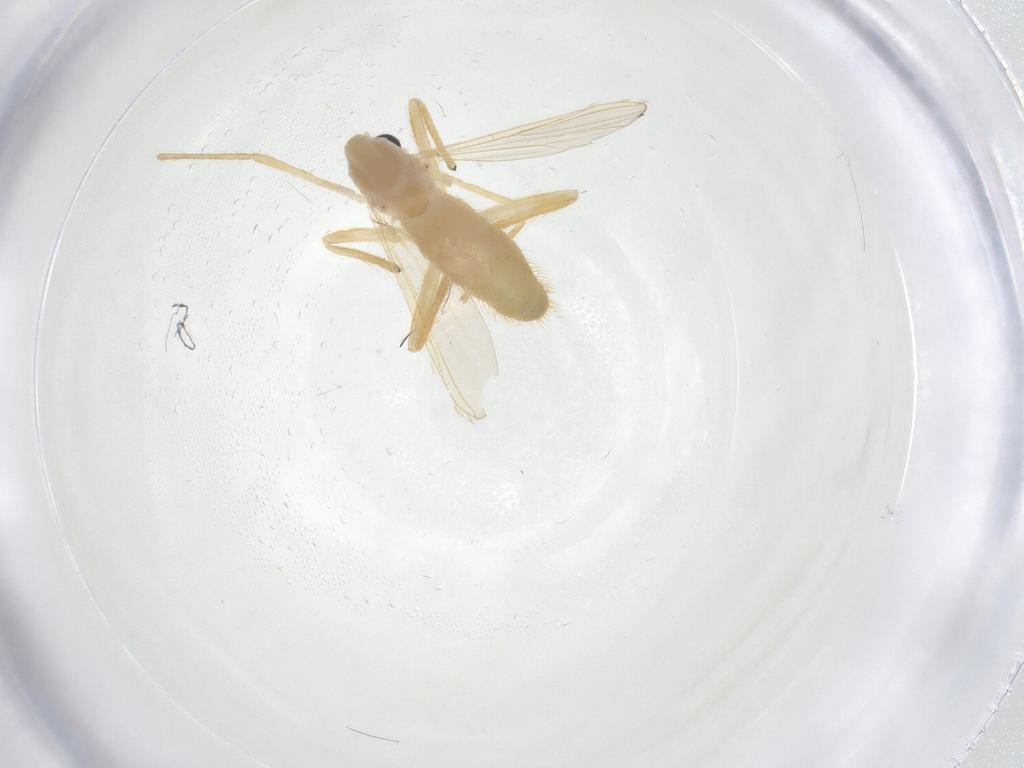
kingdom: Animalia
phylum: Arthropoda
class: Insecta
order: Diptera
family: Chironomidae
